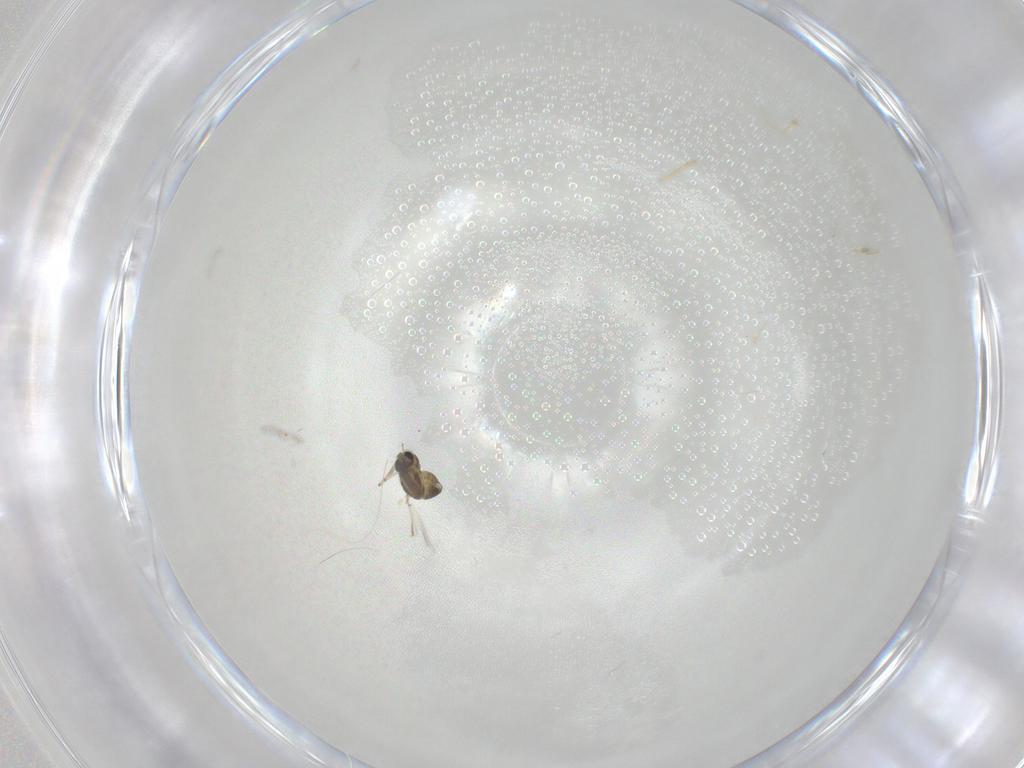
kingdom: Animalia
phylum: Arthropoda
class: Insecta
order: Diptera
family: Chironomidae
